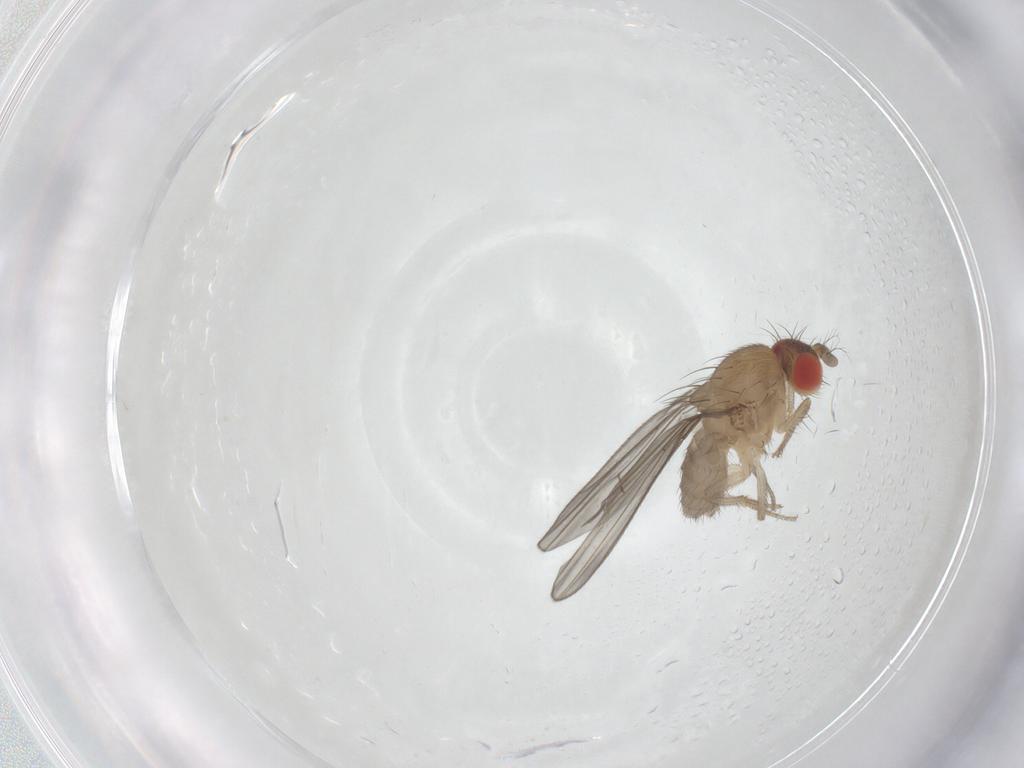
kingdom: Animalia
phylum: Arthropoda
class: Insecta
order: Diptera
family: Drosophilidae
